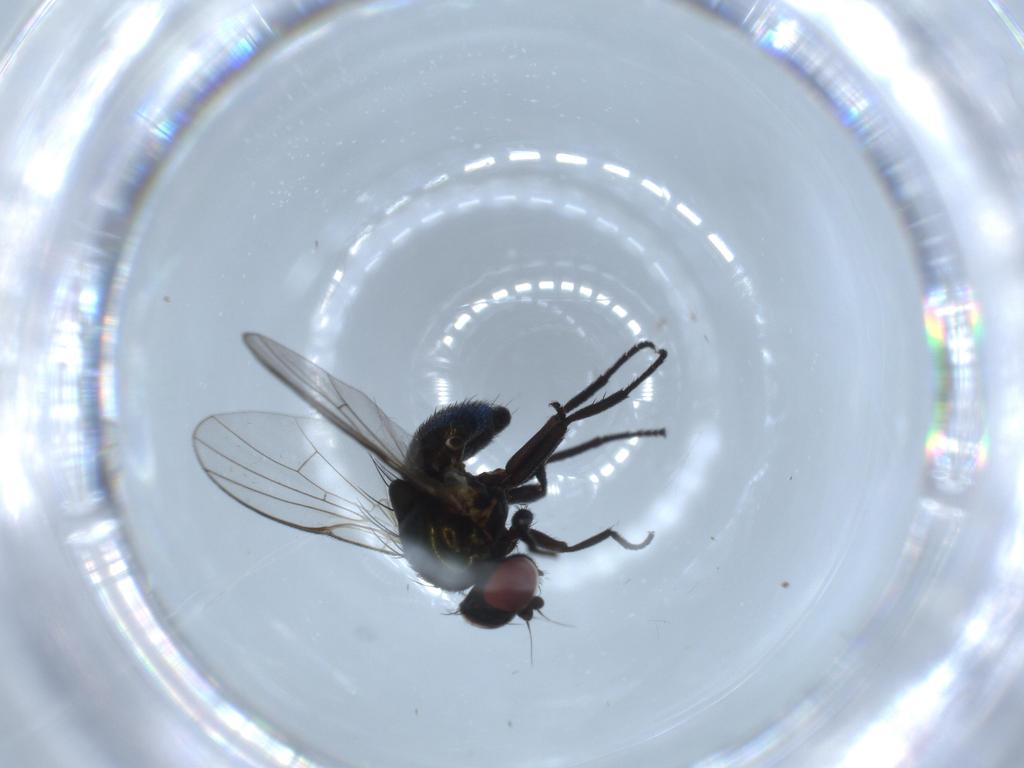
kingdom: Animalia
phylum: Arthropoda
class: Insecta
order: Diptera
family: Agromyzidae
